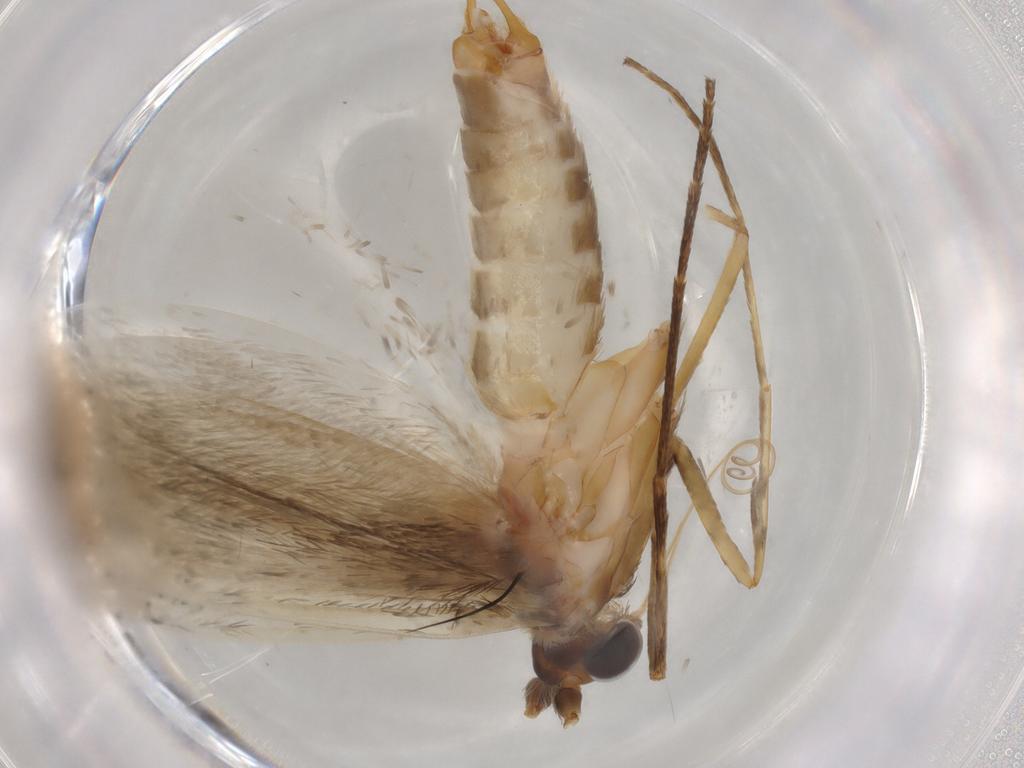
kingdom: Animalia
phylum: Arthropoda
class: Insecta
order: Lepidoptera
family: Adelidae
